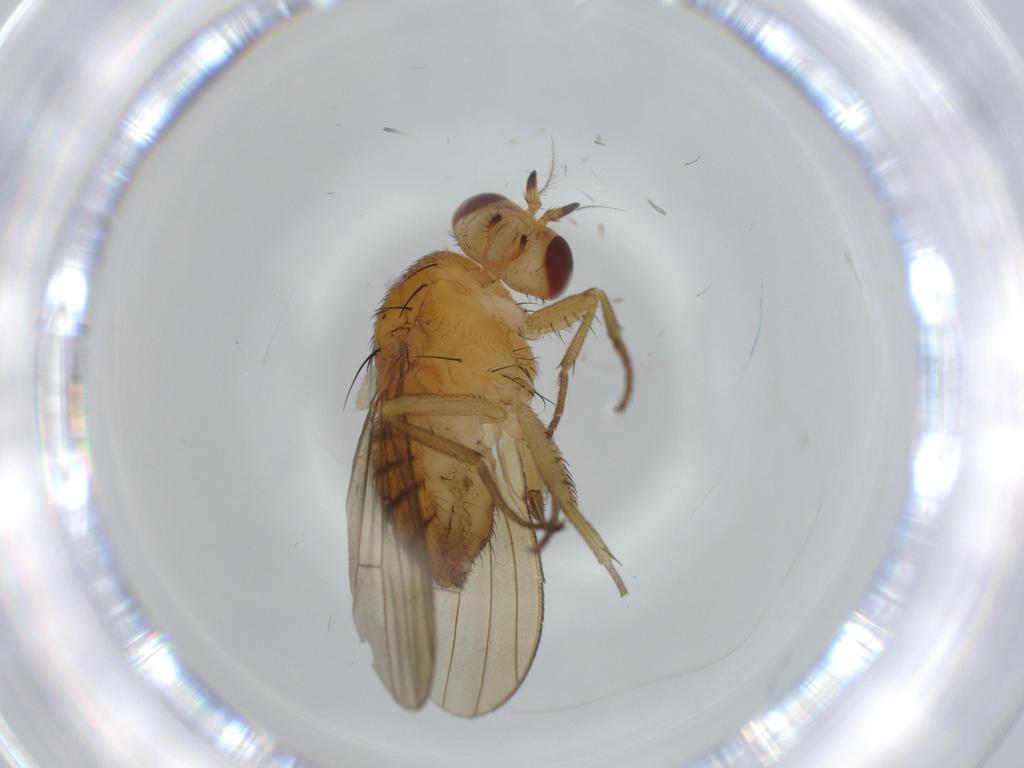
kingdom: Animalia
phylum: Arthropoda
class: Insecta
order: Diptera
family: Lauxaniidae
